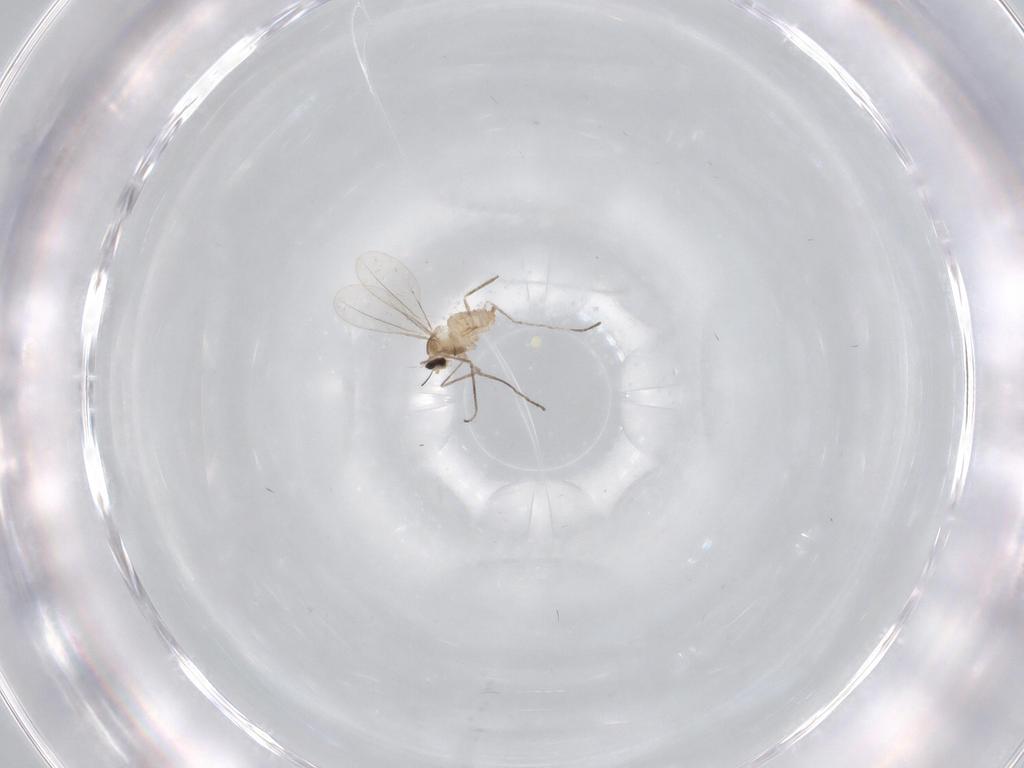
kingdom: Animalia
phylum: Arthropoda
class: Insecta
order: Diptera
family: Cecidomyiidae
